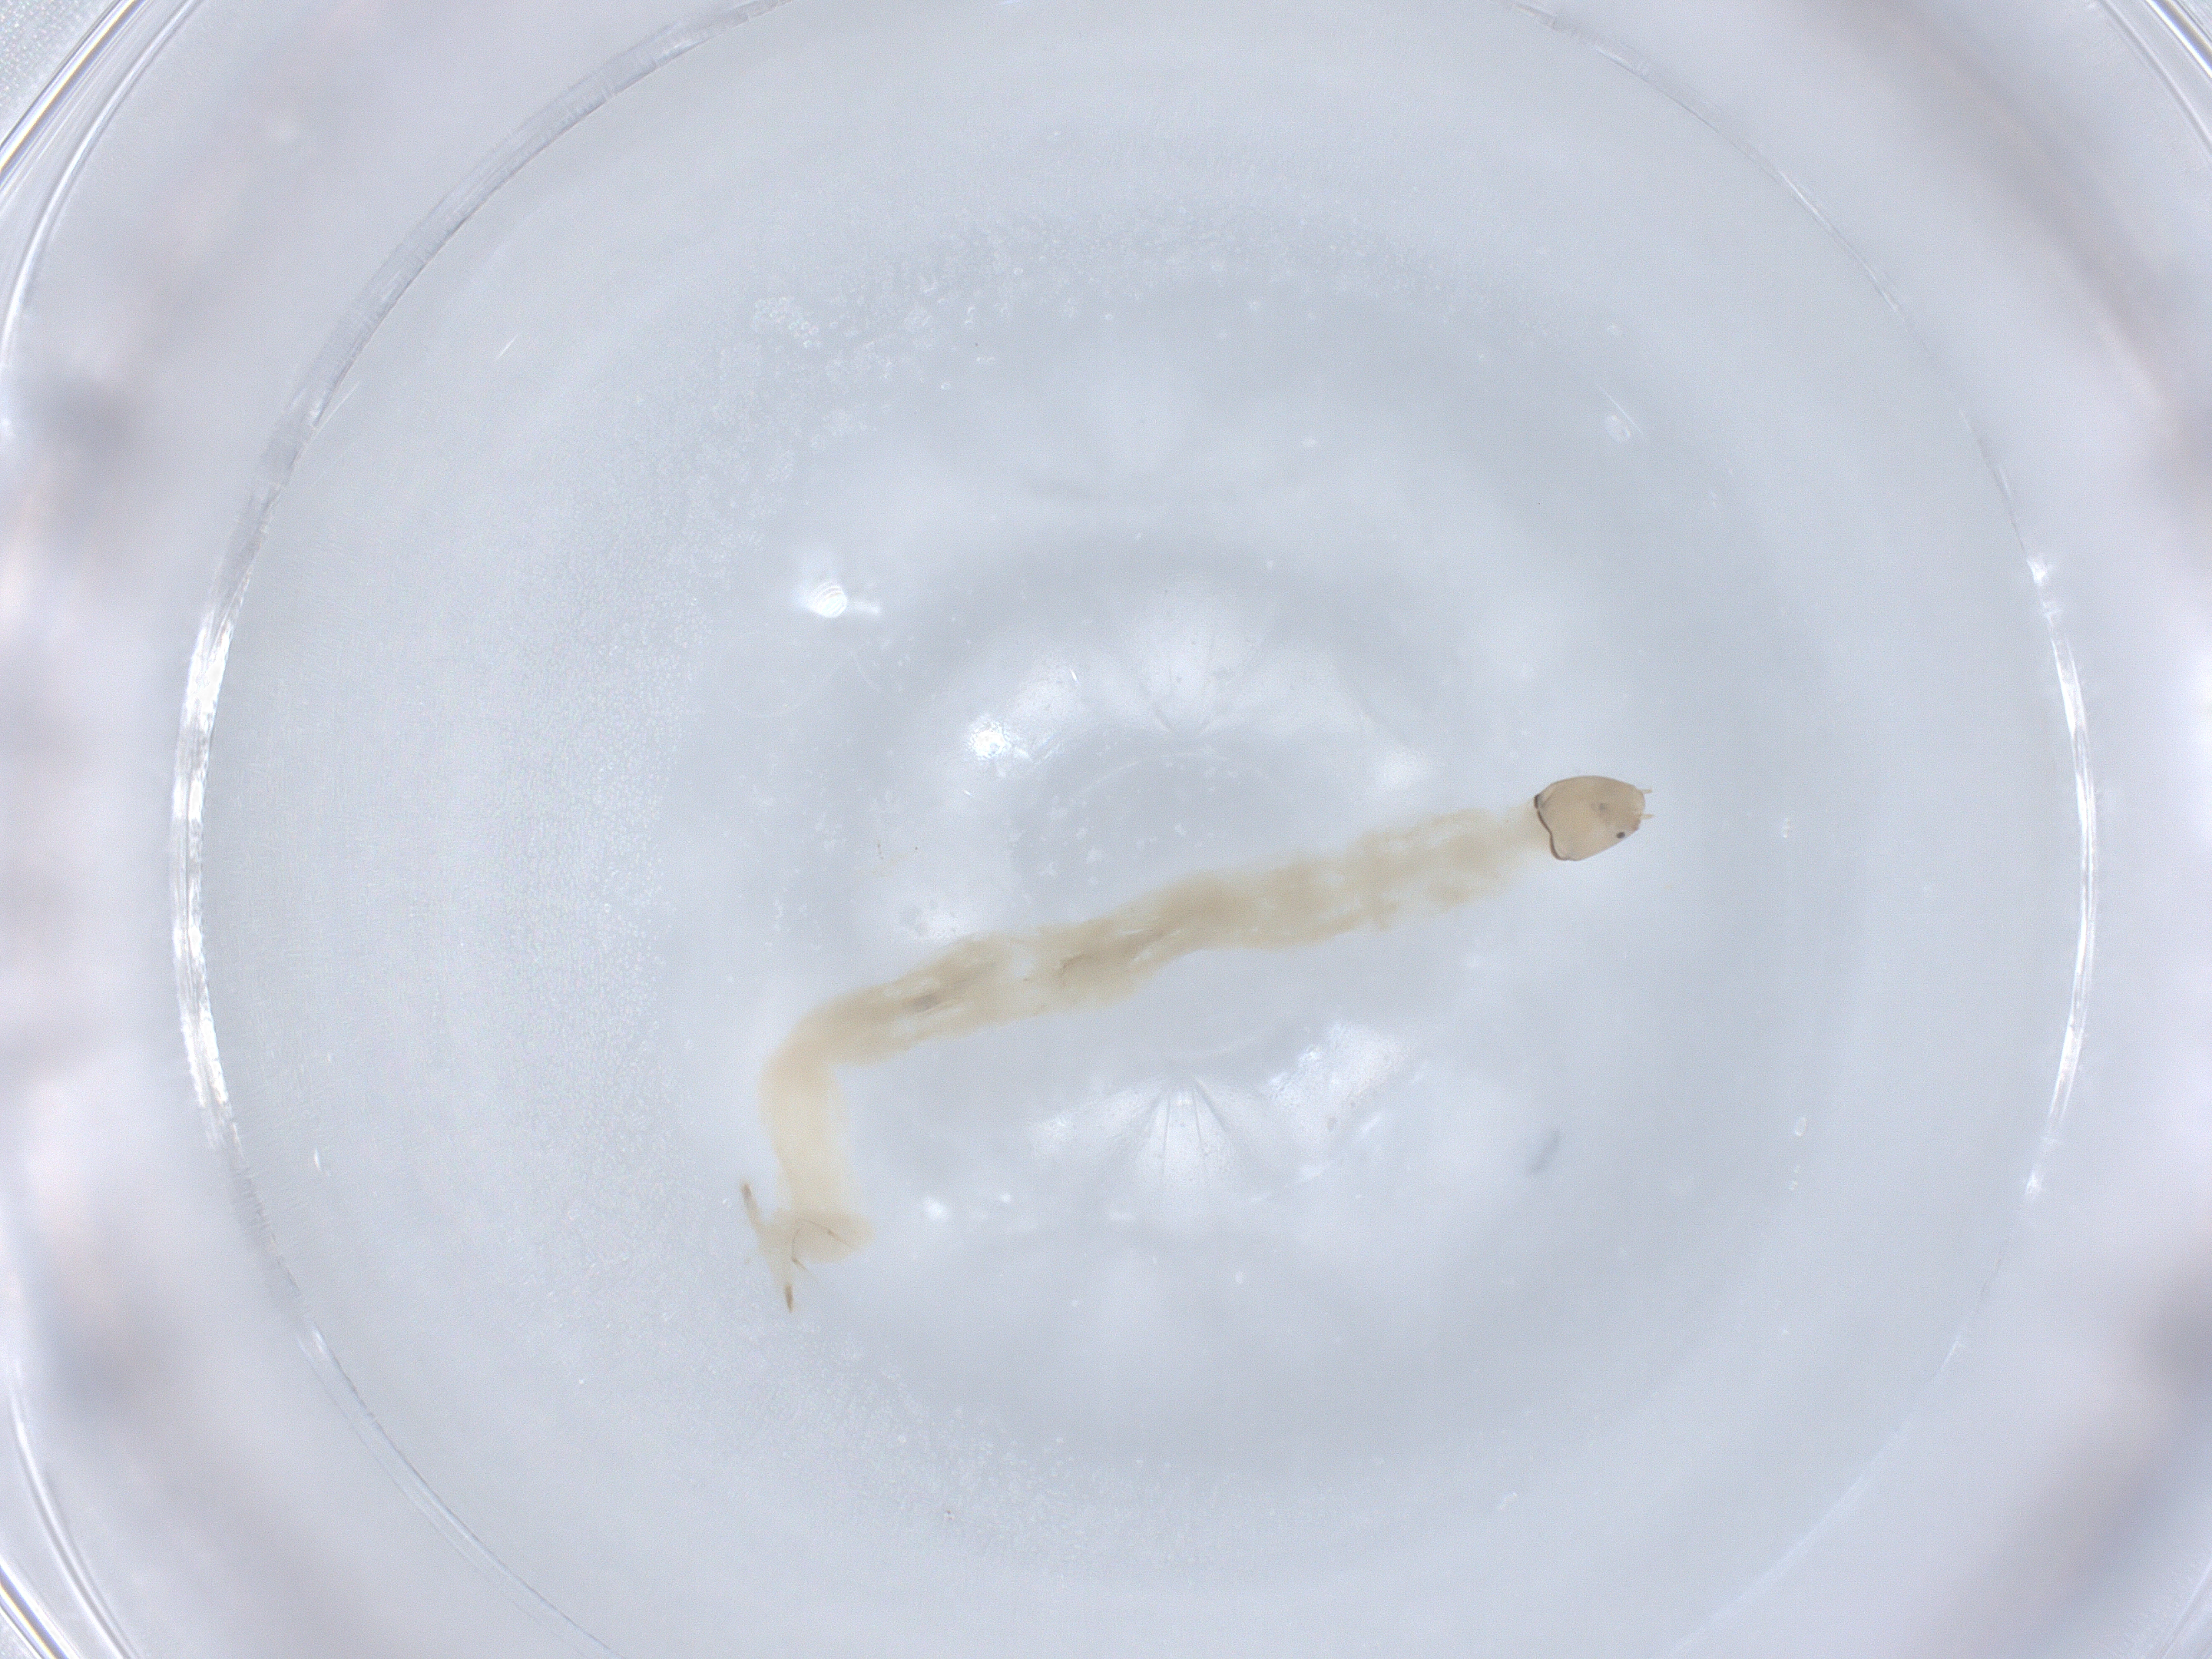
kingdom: Animalia
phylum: Arthropoda
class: Insecta
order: Diptera
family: Chironomidae
